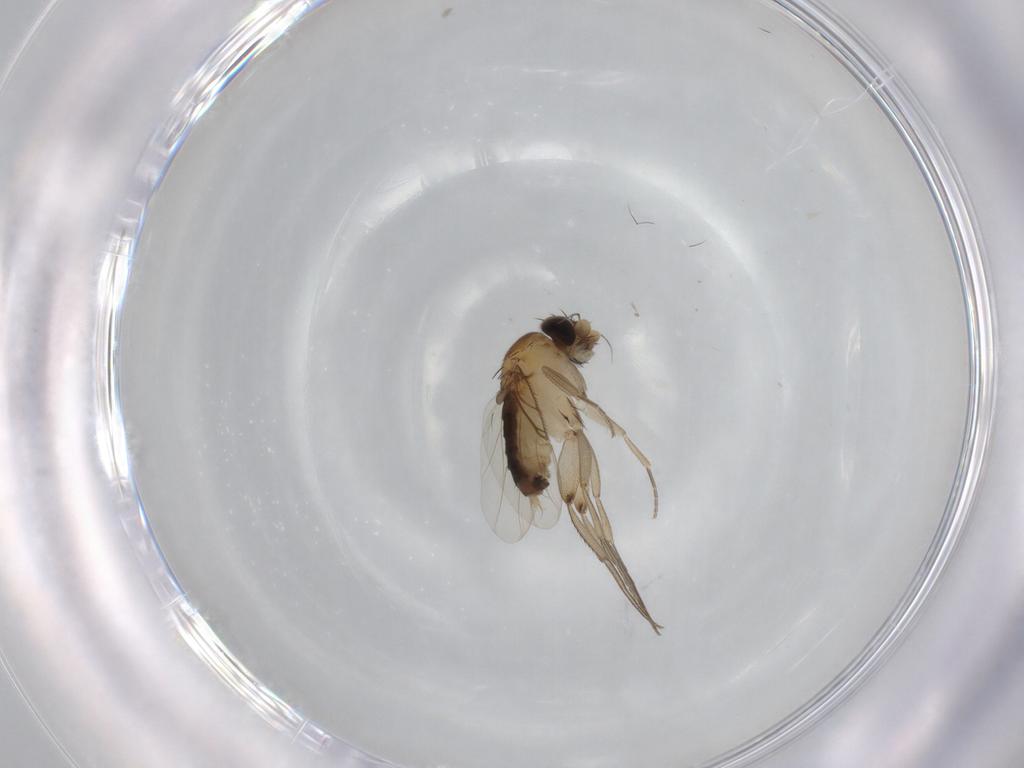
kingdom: Animalia
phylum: Arthropoda
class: Insecta
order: Diptera
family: Phoridae
